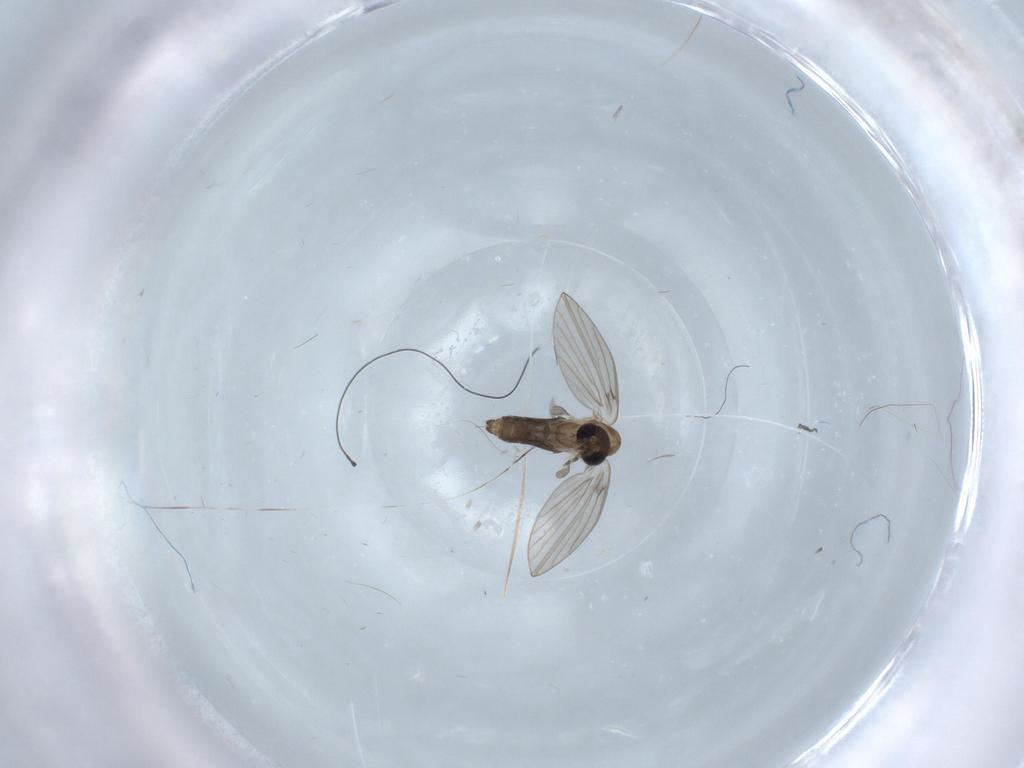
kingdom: Animalia
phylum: Arthropoda
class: Insecta
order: Diptera
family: Psychodidae
